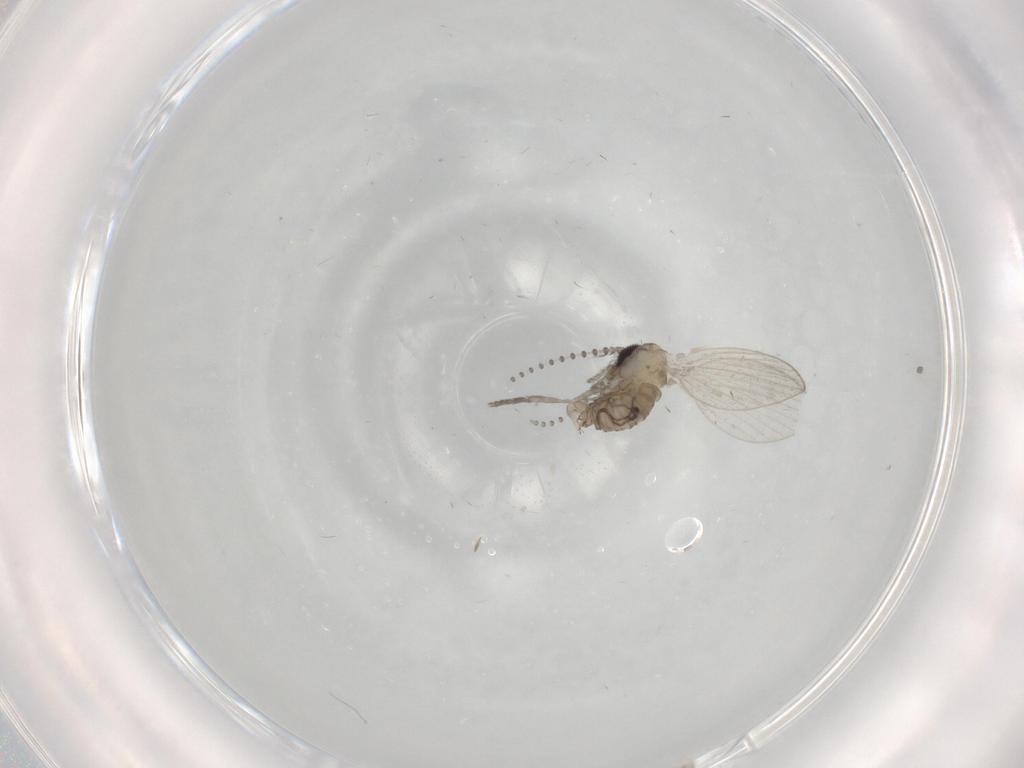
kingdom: Animalia
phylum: Arthropoda
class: Insecta
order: Diptera
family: Psychodidae
